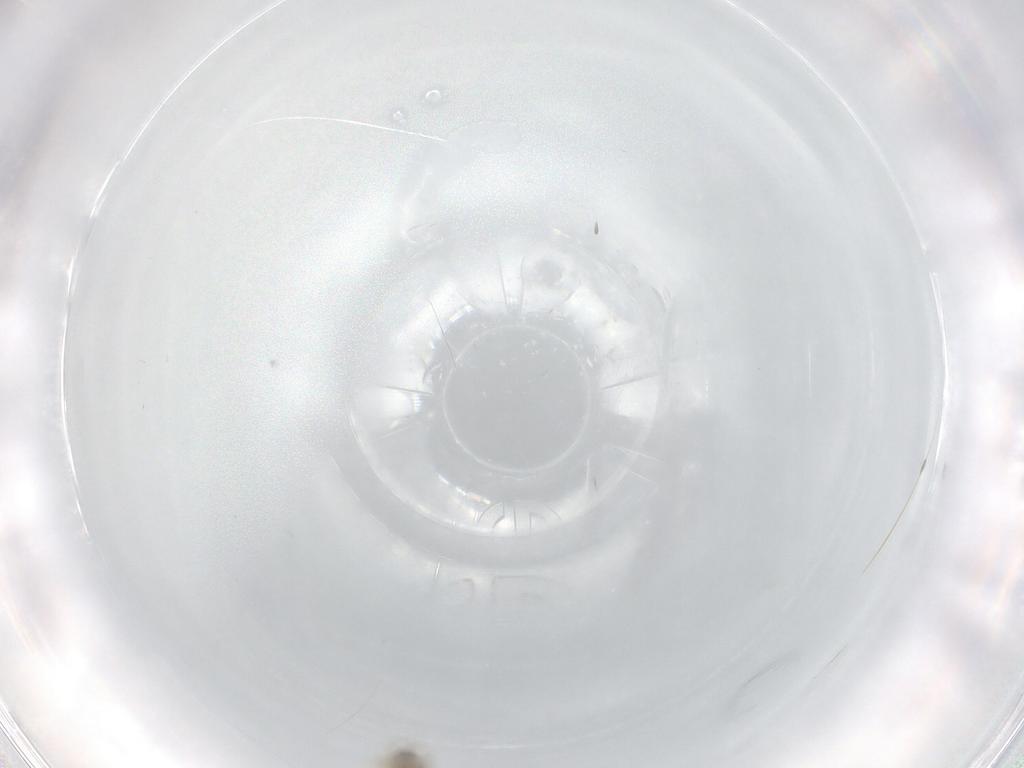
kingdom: Animalia
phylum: Arthropoda
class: Insecta
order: Diptera
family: Sciaridae
